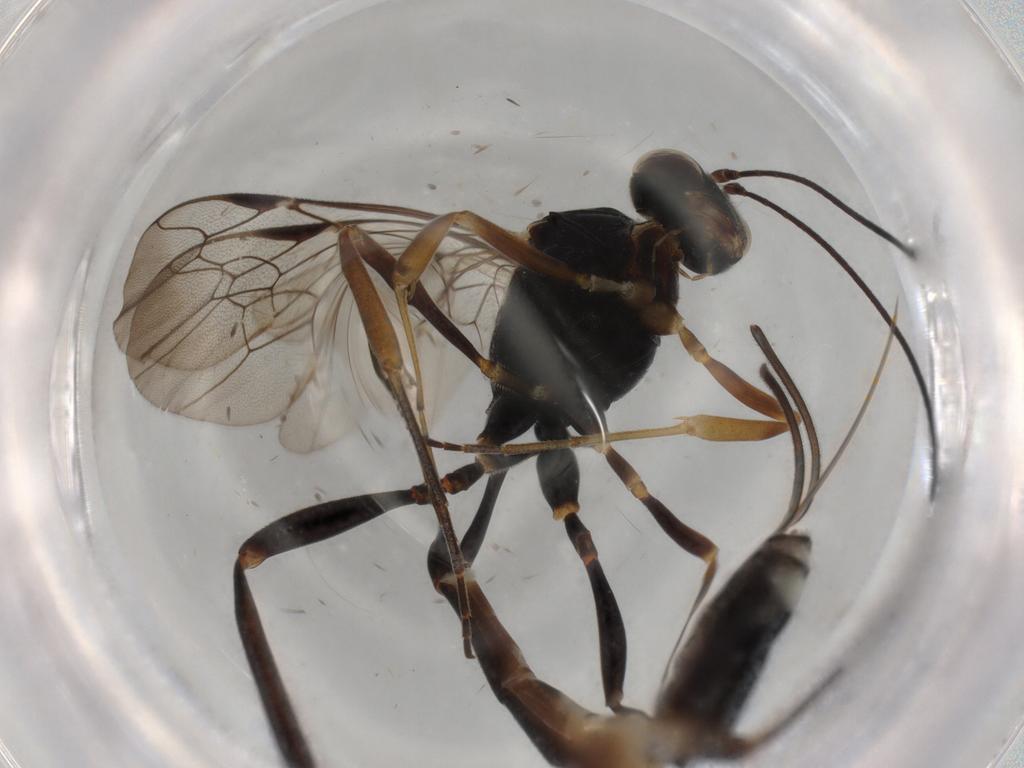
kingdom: Animalia
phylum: Arthropoda
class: Insecta
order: Hymenoptera
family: Ichneumonidae
